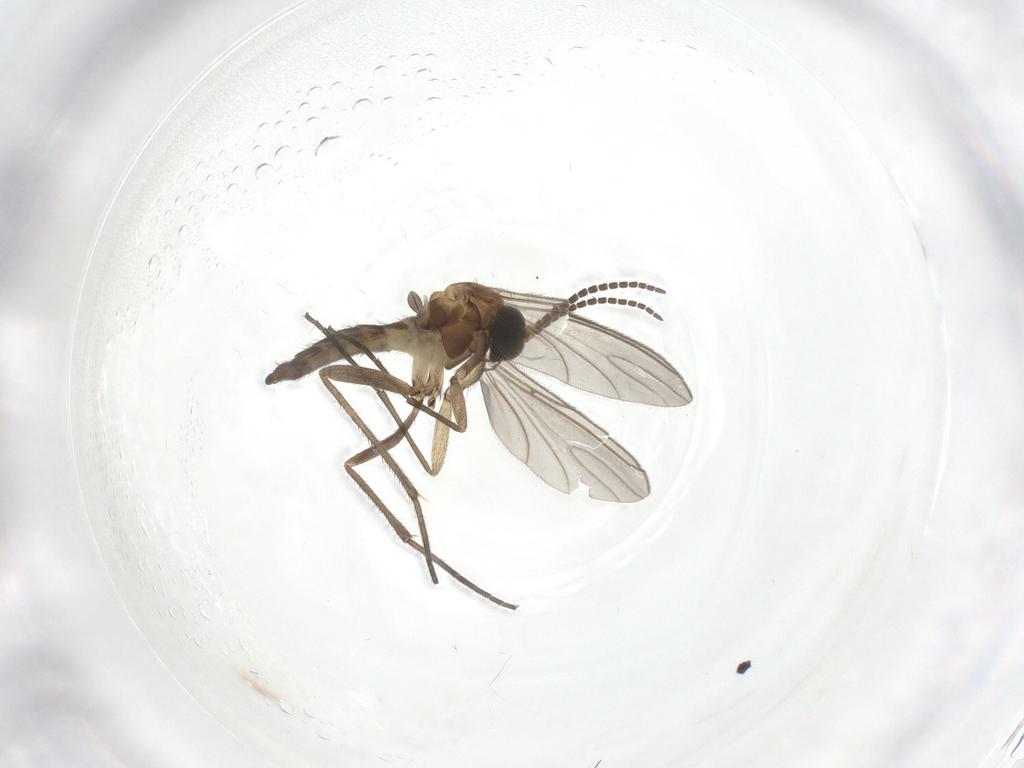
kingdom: Animalia
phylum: Arthropoda
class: Insecta
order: Diptera
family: Sciaridae
